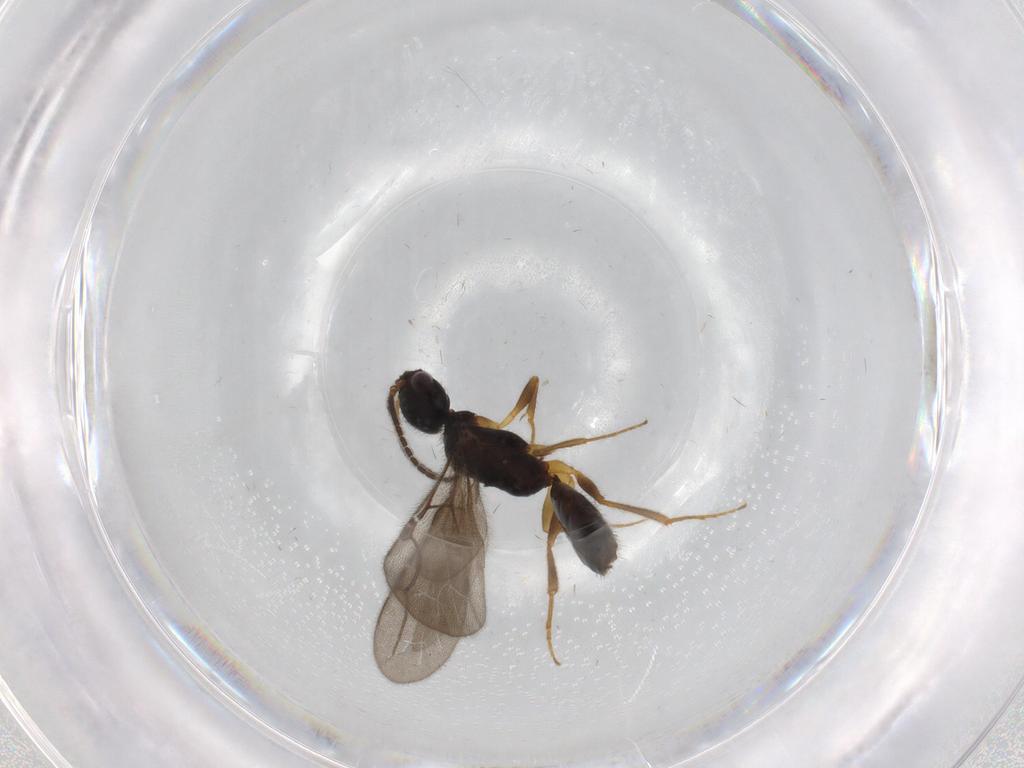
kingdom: Animalia
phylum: Arthropoda
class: Insecta
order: Hymenoptera
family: Bethylidae
